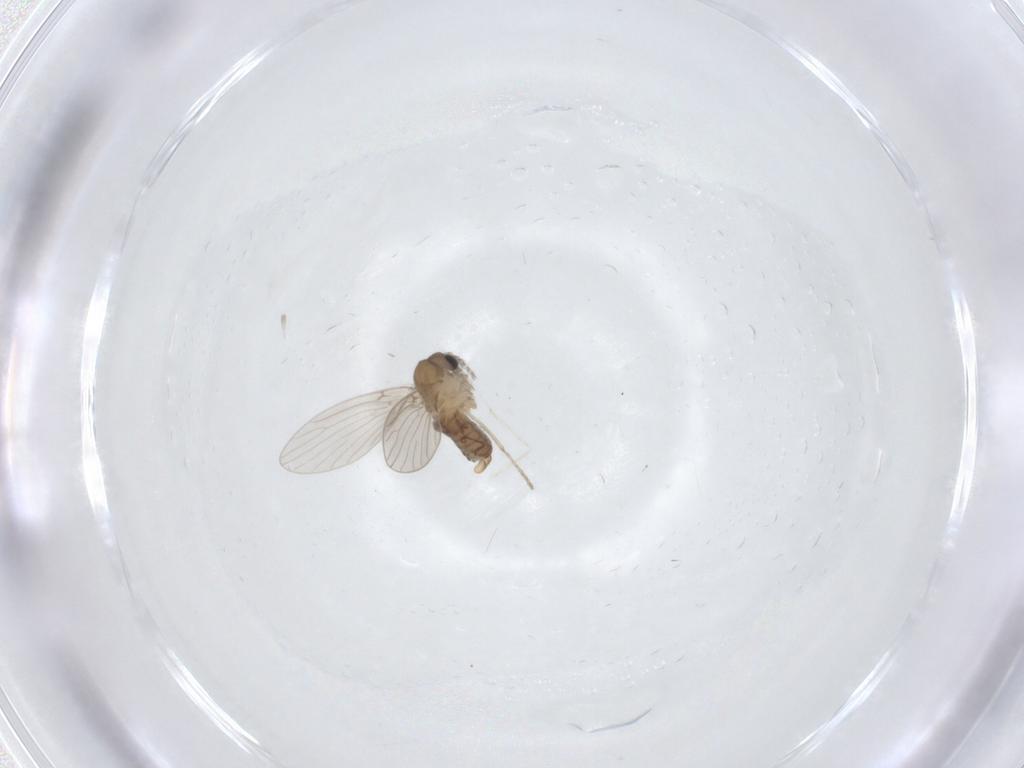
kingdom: Animalia
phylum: Arthropoda
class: Insecta
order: Diptera
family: Cecidomyiidae
